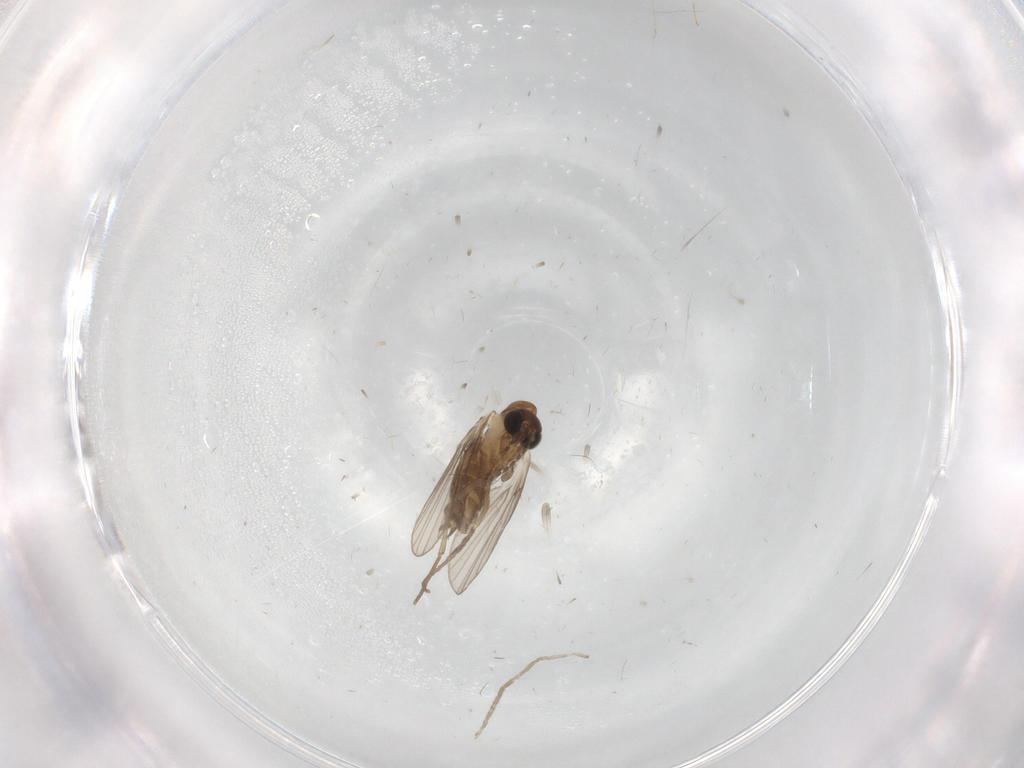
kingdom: Animalia
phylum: Arthropoda
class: Insecta
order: Diptera
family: Psychodidae
